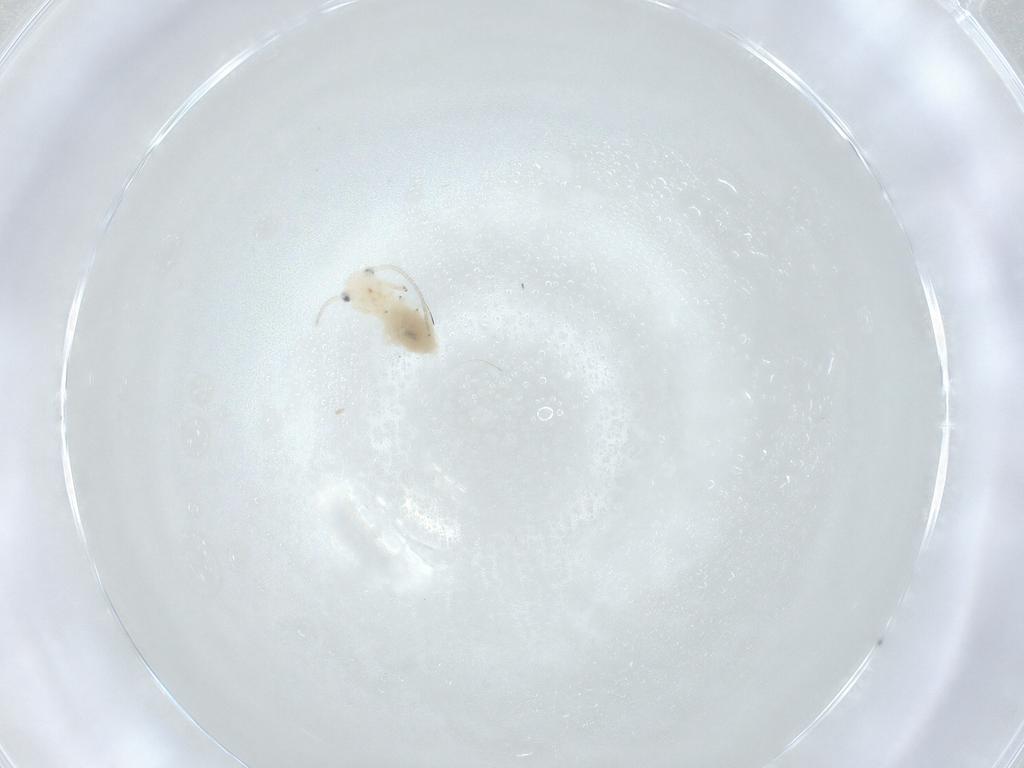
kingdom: Animalia
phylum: Arthropoda
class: Insecta
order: Psocodea
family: Caeciliusidae
